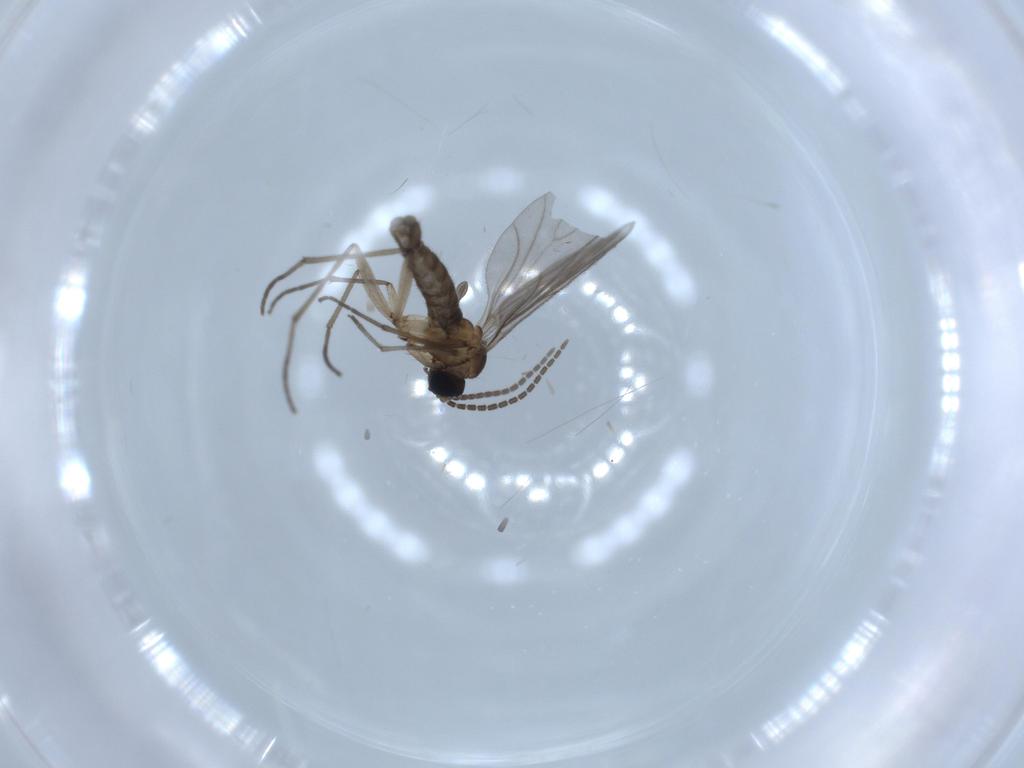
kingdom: Animalia
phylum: Arthropoda
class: Insecta
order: Diptera
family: Sciaridae
